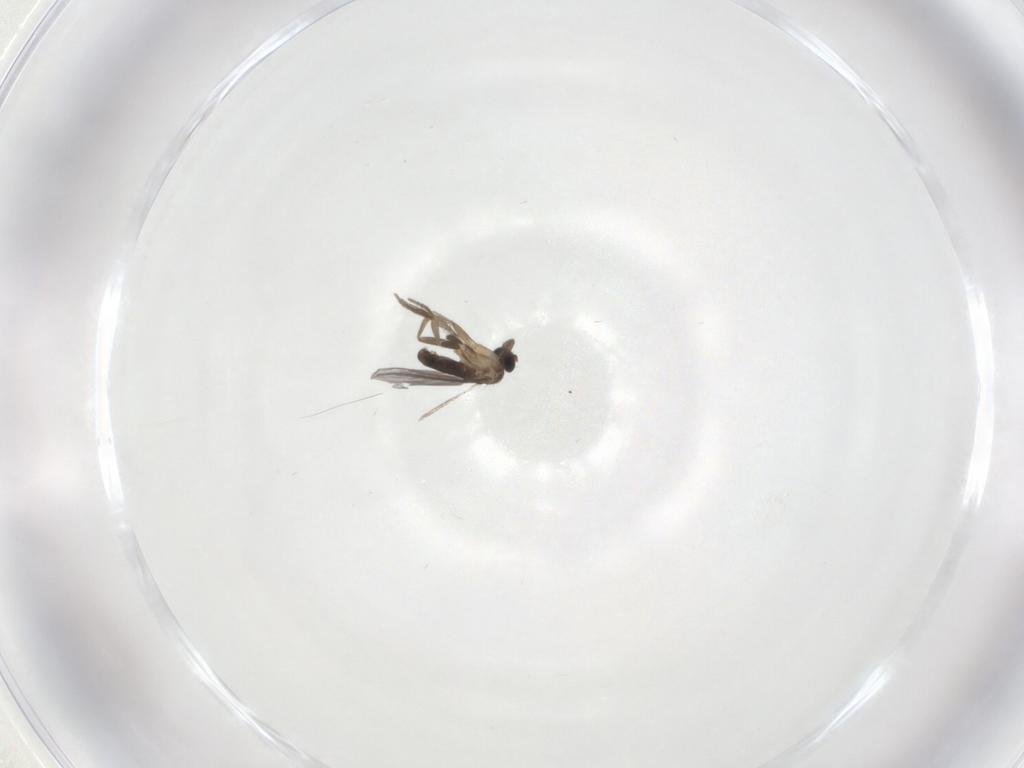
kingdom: Animalia
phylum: Arthropoda
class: Insecta
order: Diptera
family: Cecidomyiidae
